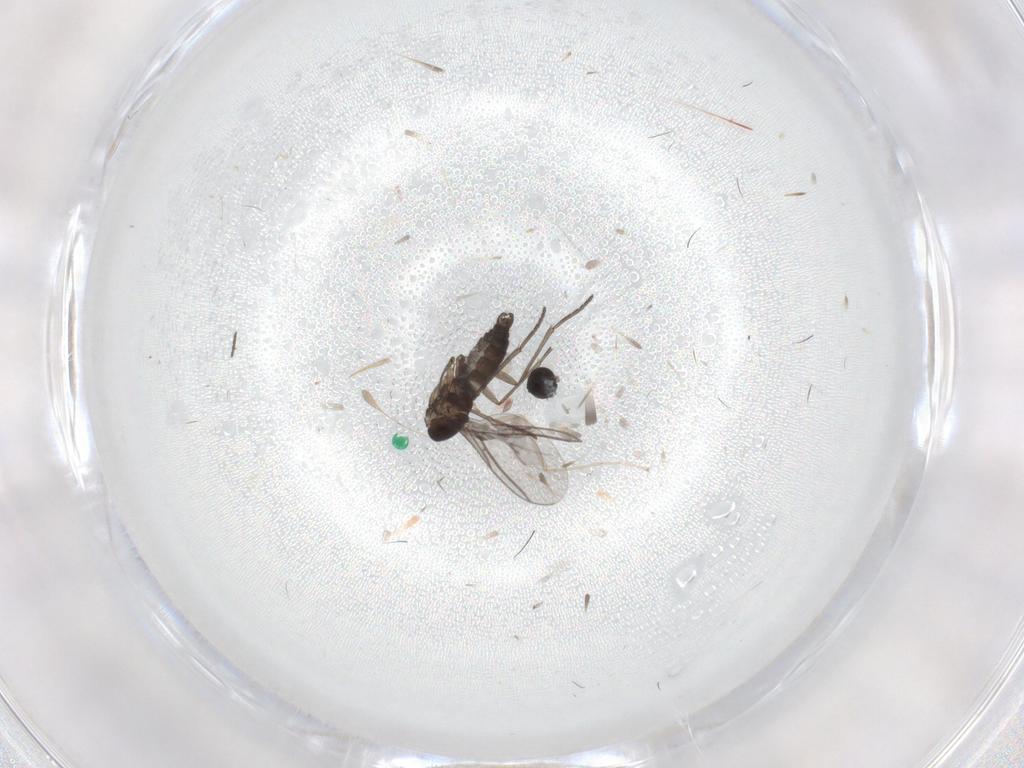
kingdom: Animalia
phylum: Arthropoda
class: Insecta
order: Diptera
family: Cecidomyiidae
